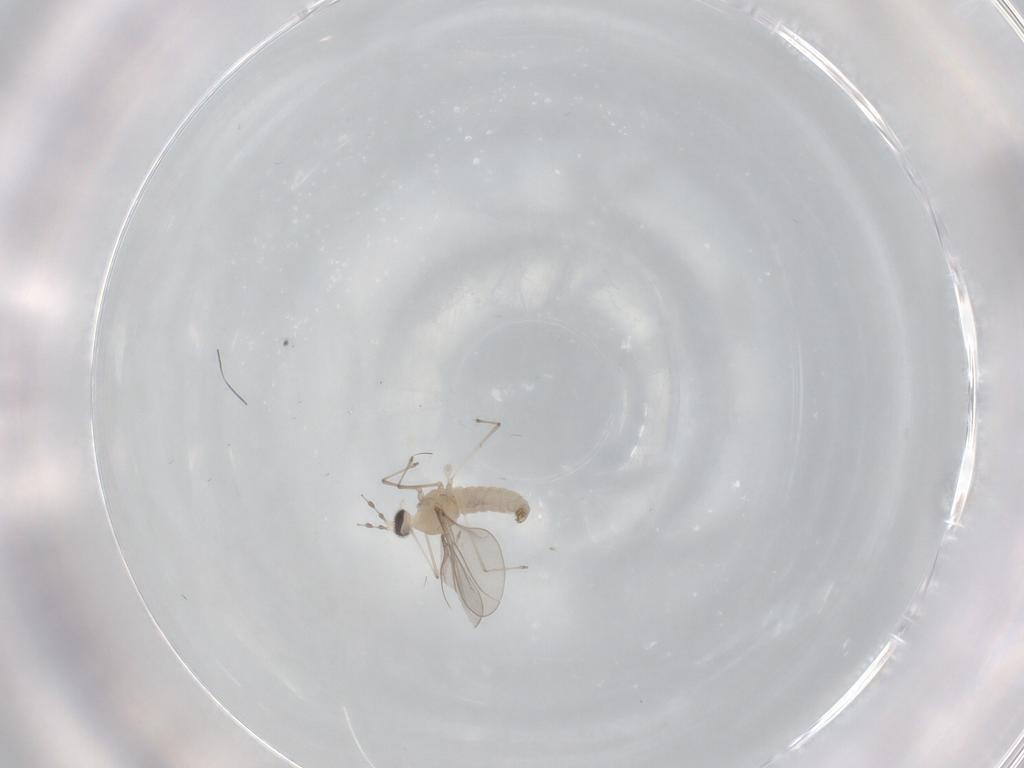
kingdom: Animalia
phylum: Arthropoda
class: Insecta
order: Diptera
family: Cecidomyiidae
